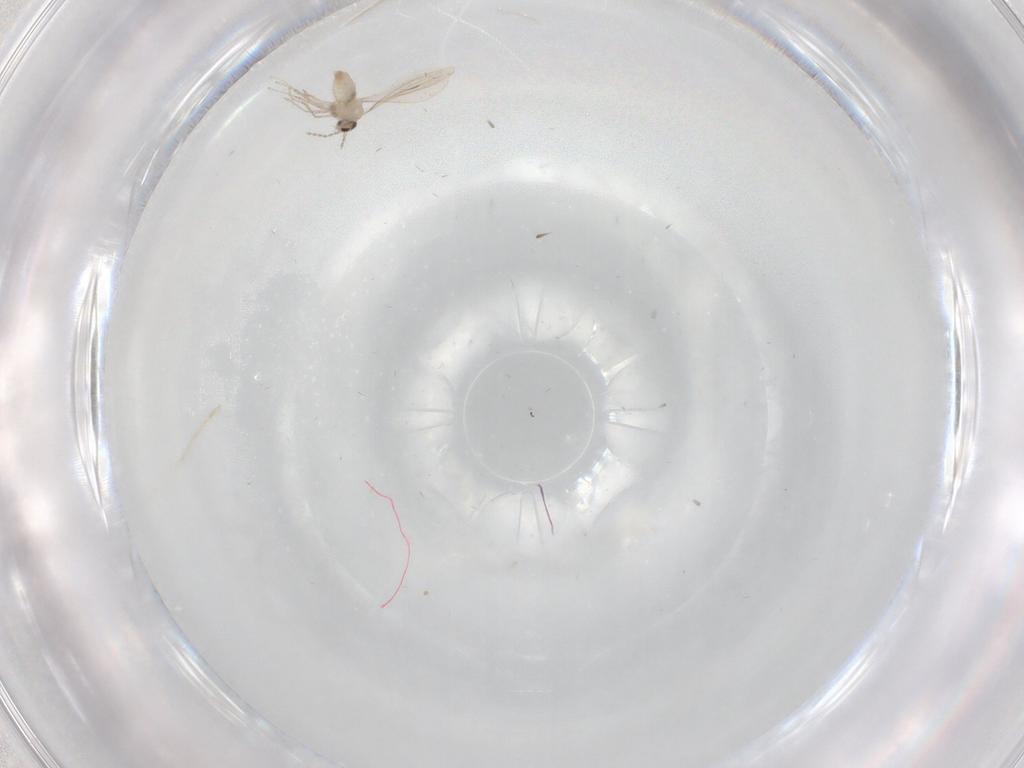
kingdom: Animalia
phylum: Arthropoda
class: Insecta
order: Diptera
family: Cecidomyiidae
